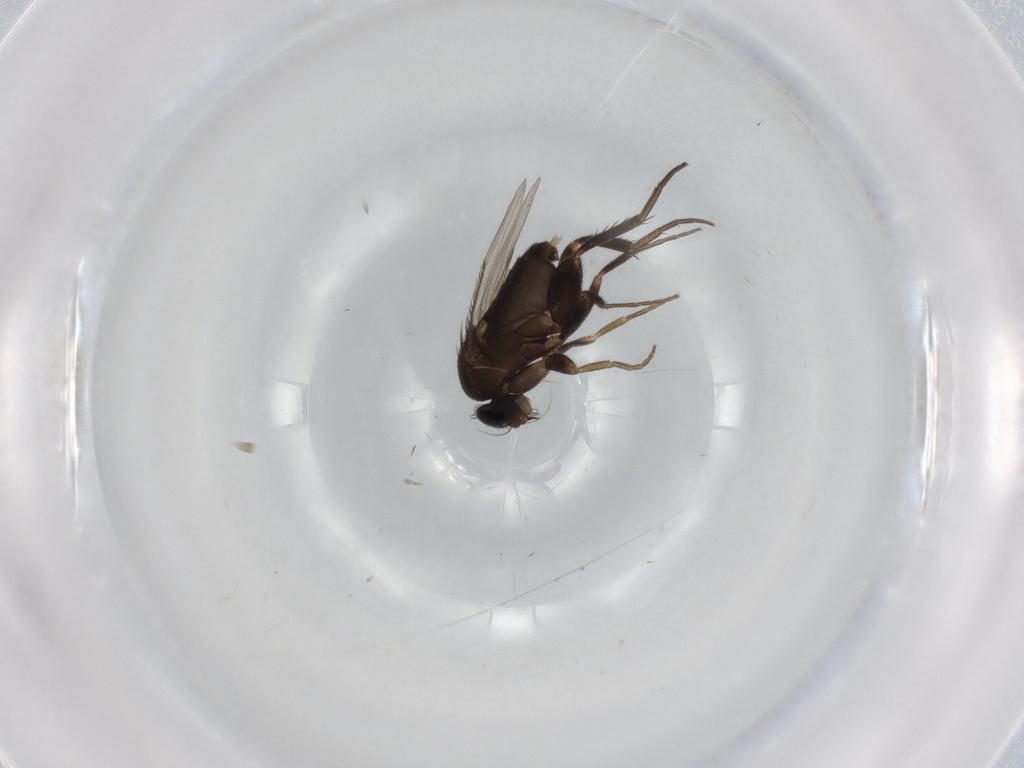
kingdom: Animalia
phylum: Arthropoda
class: Insecta
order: Diptera
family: Phoridae
